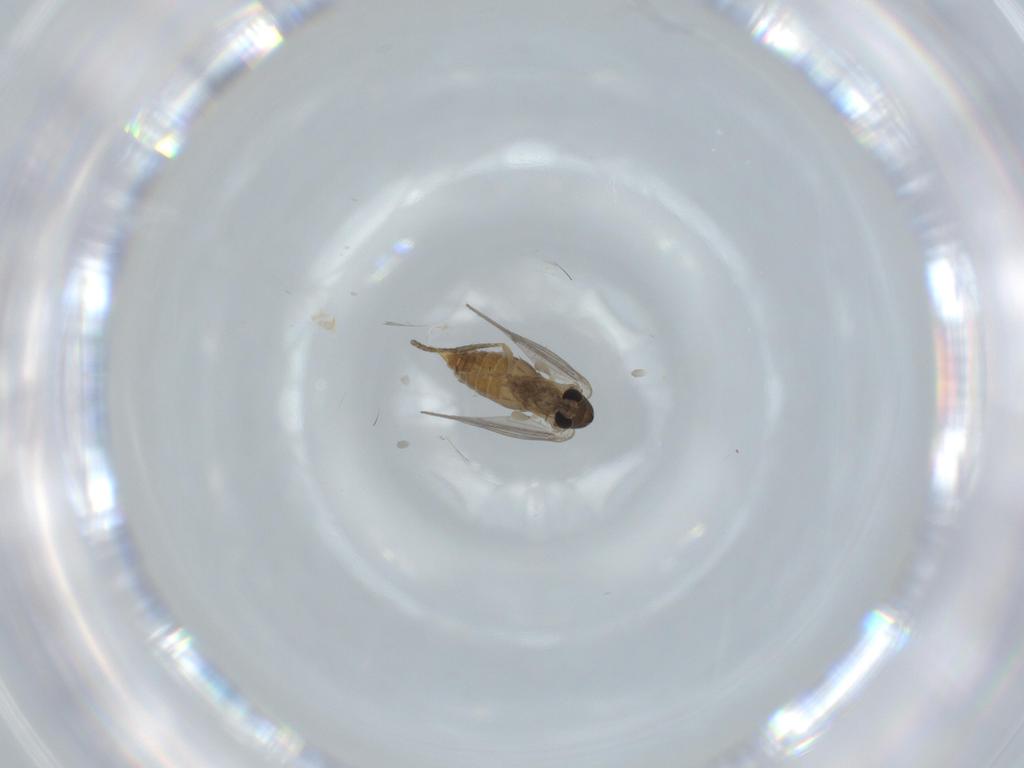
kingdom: Animalia
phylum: Arthropoda
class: Insecta
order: Diptera
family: Psychodidae
